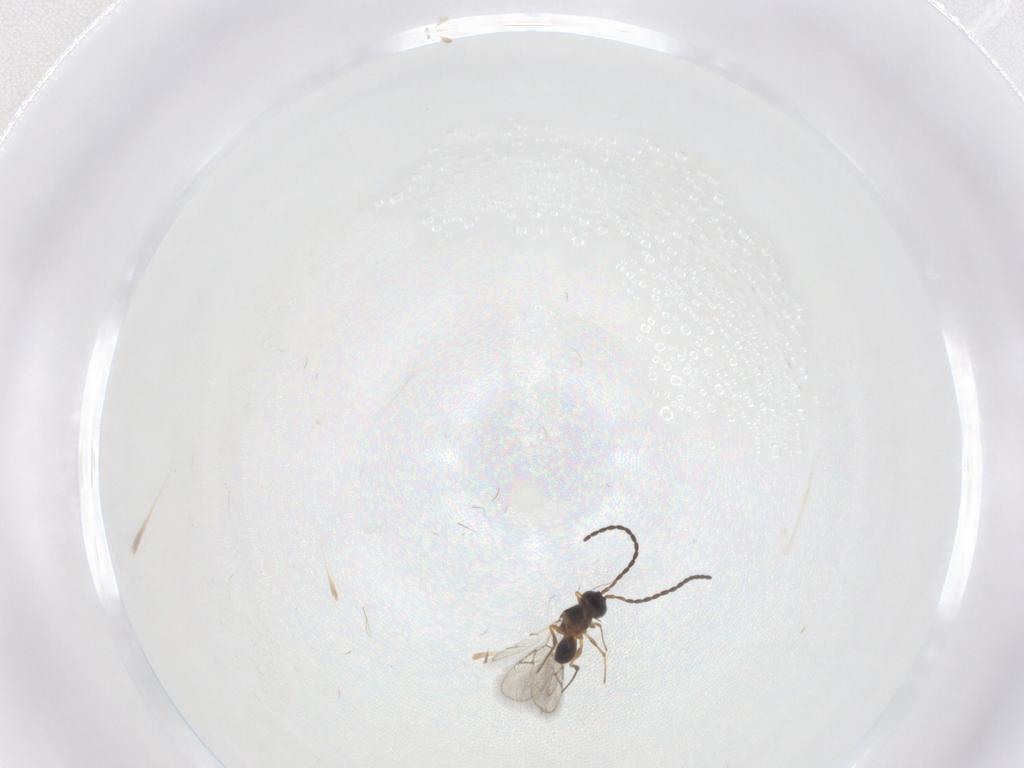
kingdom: Animalia
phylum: Arthropoda
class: Insecta
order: Hymenoptera
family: Figitidae
